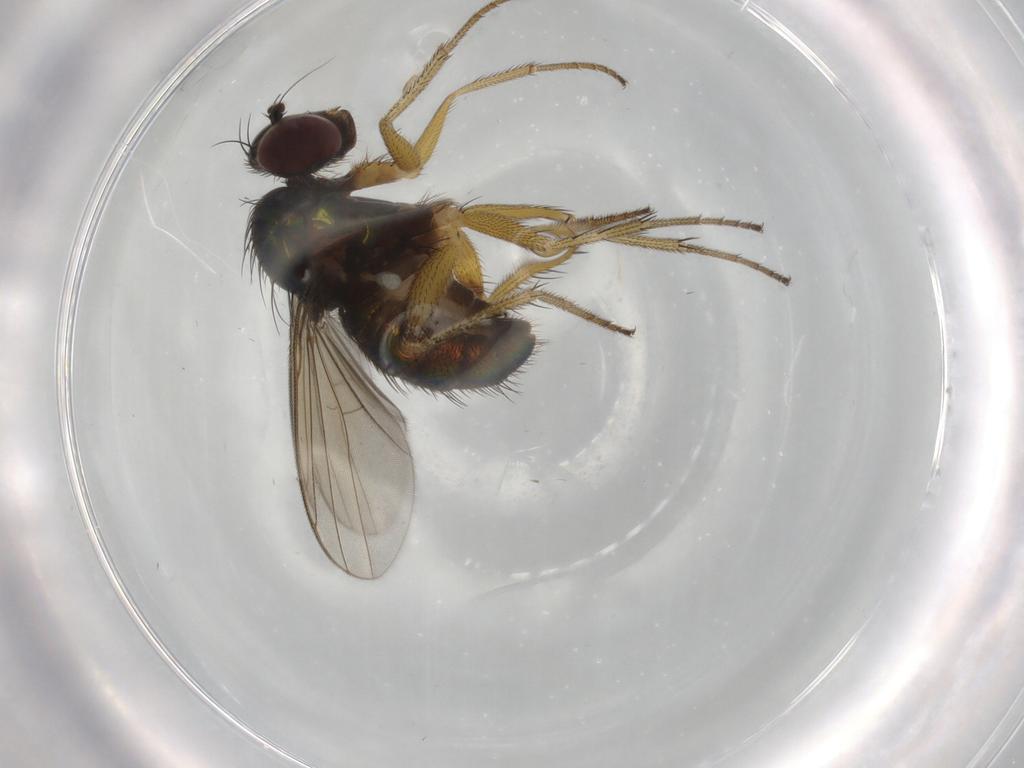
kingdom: Animalia
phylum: Arthropoda
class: Insecta
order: Diptera
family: Dolichopodidae
